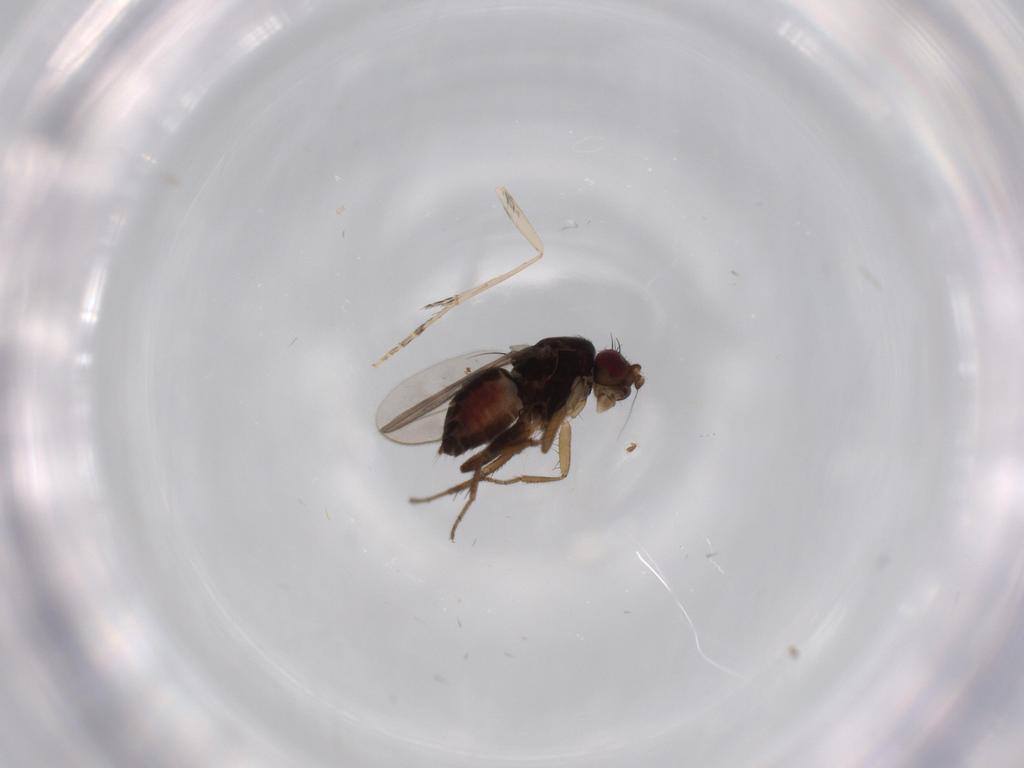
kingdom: Animalia
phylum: Arthropoda
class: Insecta
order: Diptera
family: Sphaeroceridae
